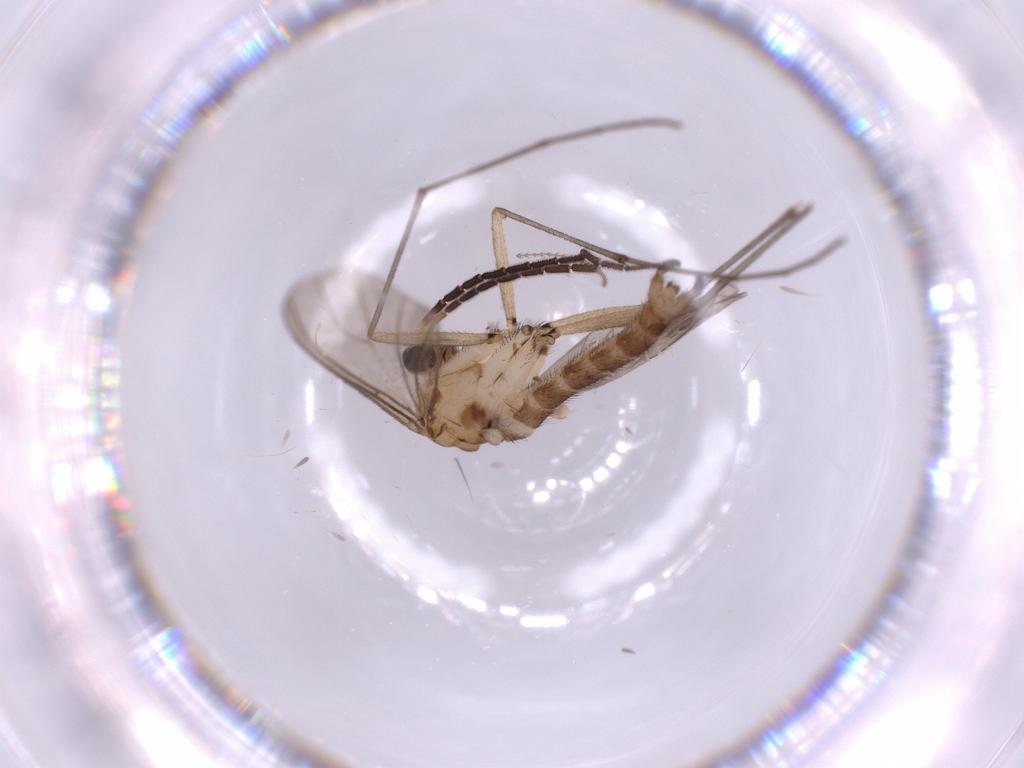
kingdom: Animalia
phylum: Arthropoda
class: Insecta
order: Diptera
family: Sciaridae
